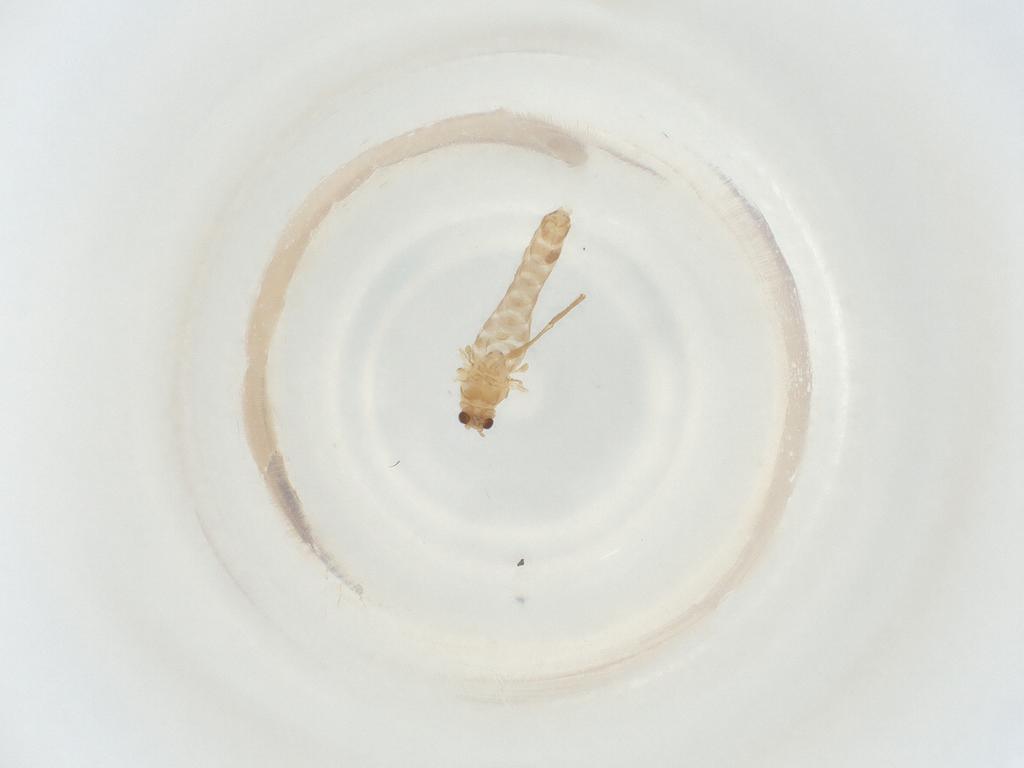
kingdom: Animalia
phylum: Arthropoda
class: Insecta
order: Diptera
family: Chironomidae
